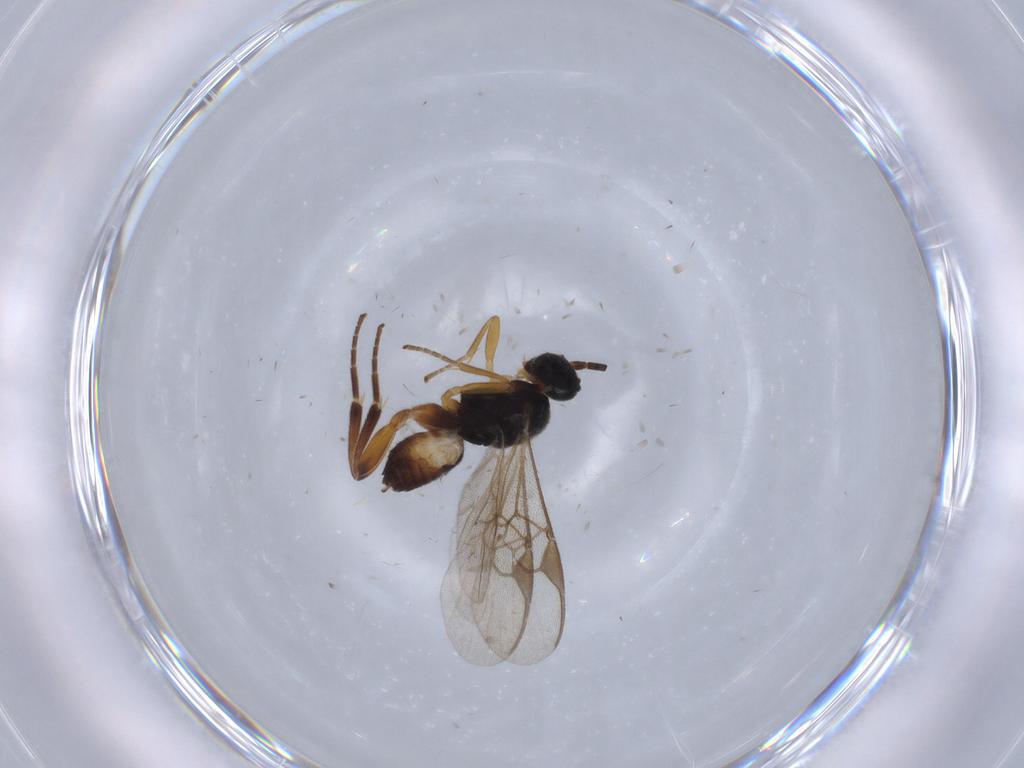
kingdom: Animalia
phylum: Arthropoda
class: Insecta
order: Hymenoptera
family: Braconidae
